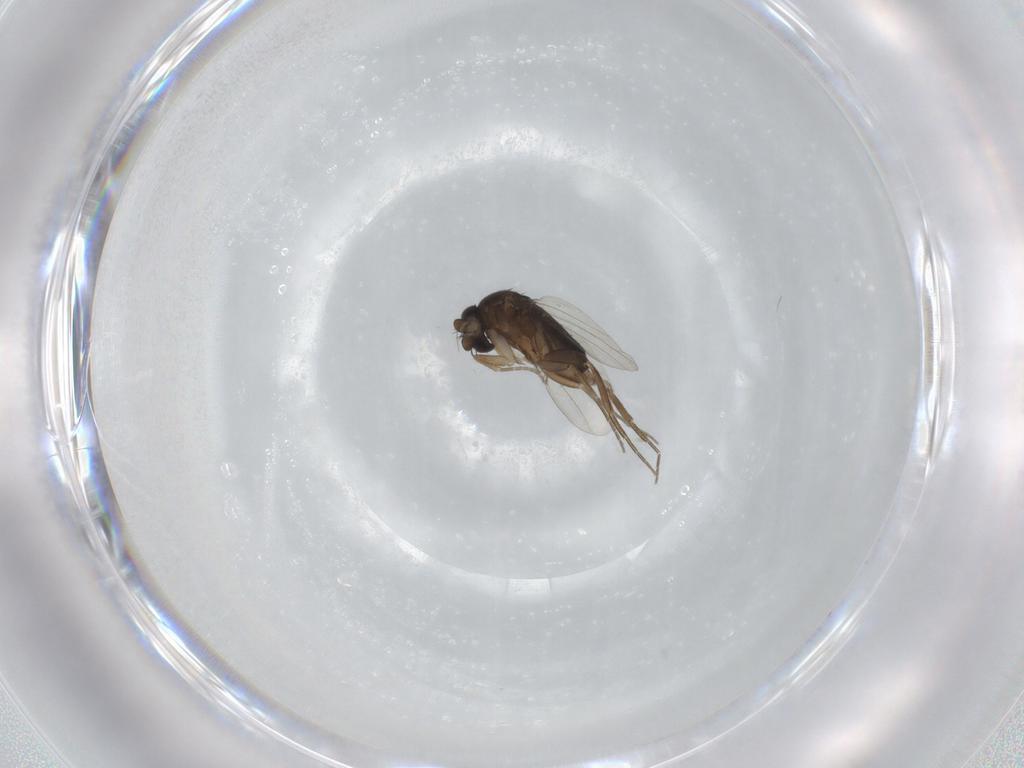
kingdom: Animalia
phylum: Arthropoda
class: Insecta
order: Diptera
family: Phoridae
